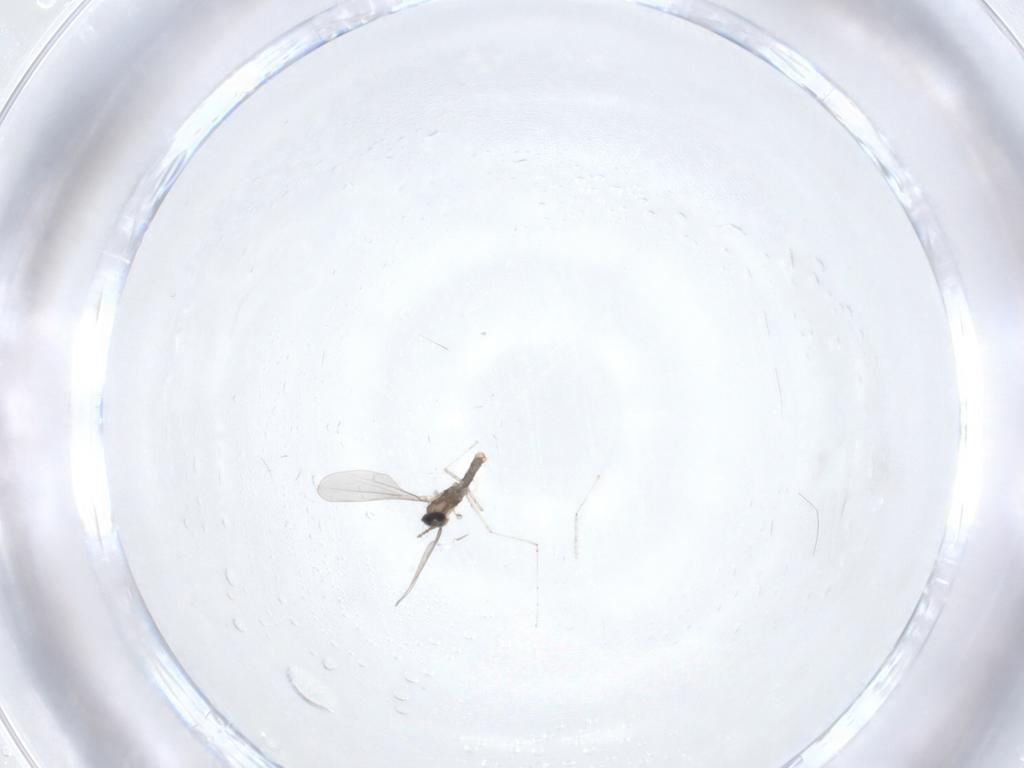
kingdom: Animalia
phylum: Arthropoda
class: Insecta
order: Diptera
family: Cecidomyiidae
